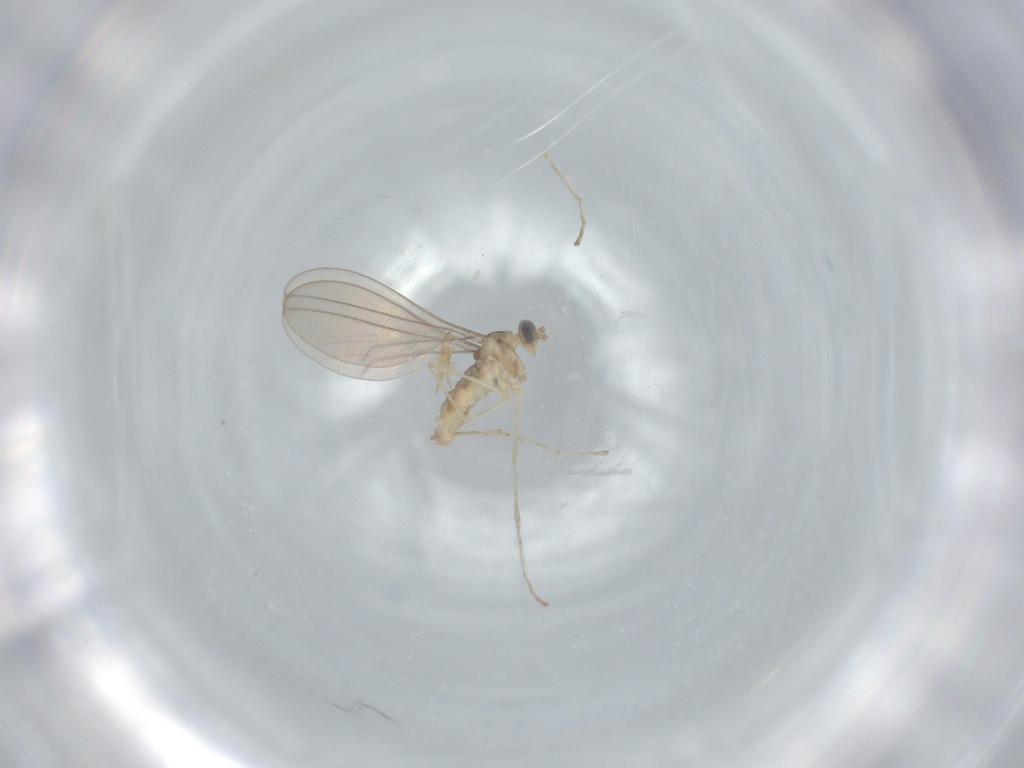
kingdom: Animalia
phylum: Arthropoda
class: Insecta
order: Diptera
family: Cecidomyiidae
